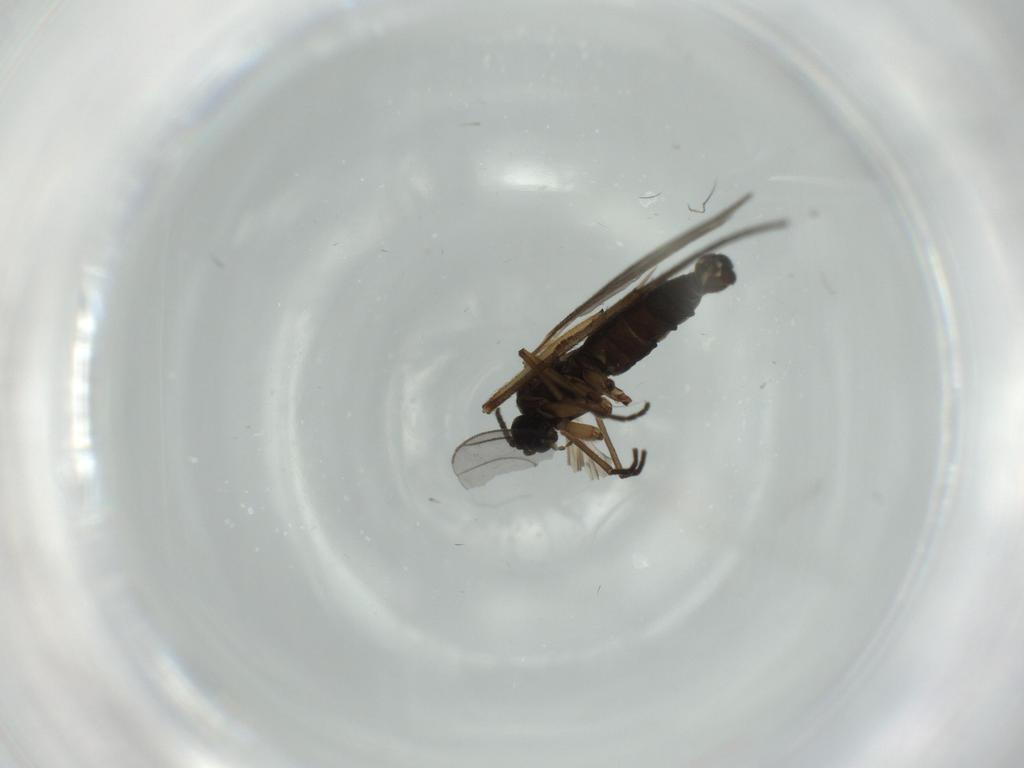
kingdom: Animalia
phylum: Arthropoda
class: Insecta
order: Diptera
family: Sciaridae
